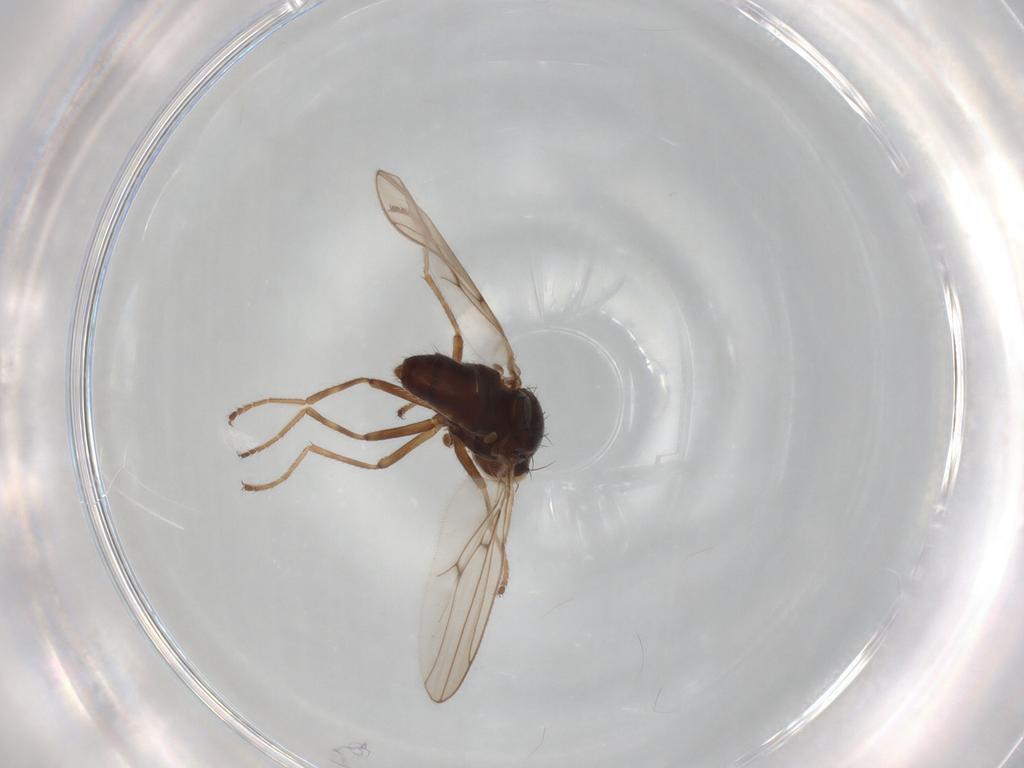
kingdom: Animalia
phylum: Arthropoda
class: Insecta
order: Diptera
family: Ephydridae
